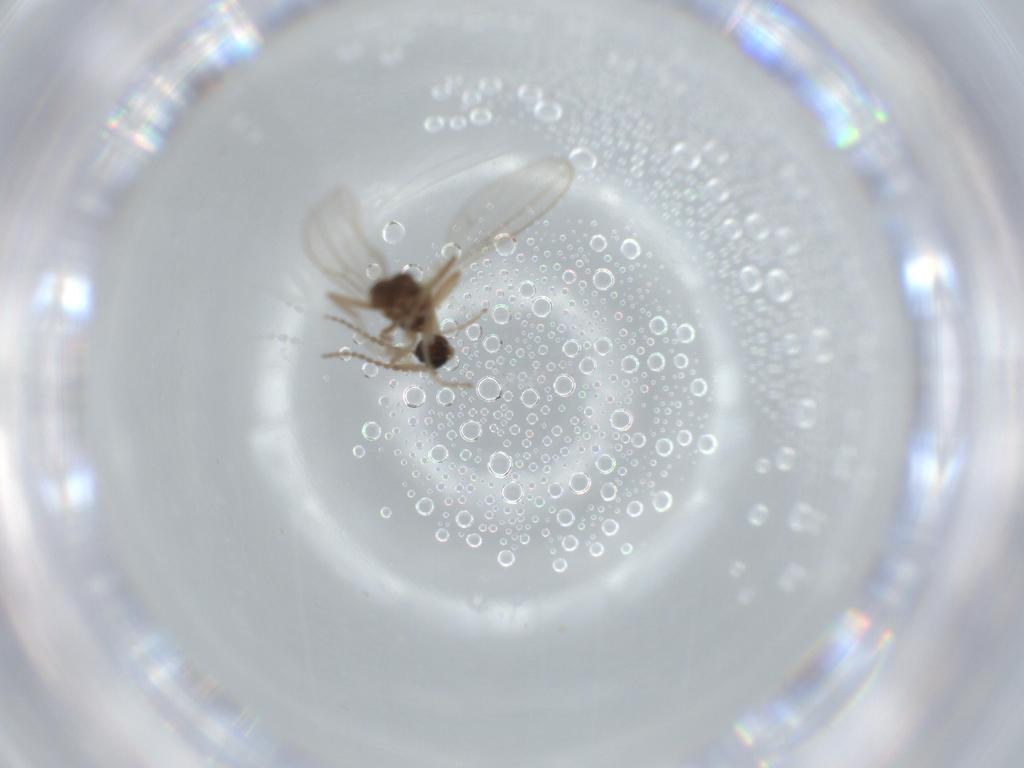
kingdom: Animalia
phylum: Arthropoda
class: Insecta
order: Diptera
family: Cecidomyiidae
